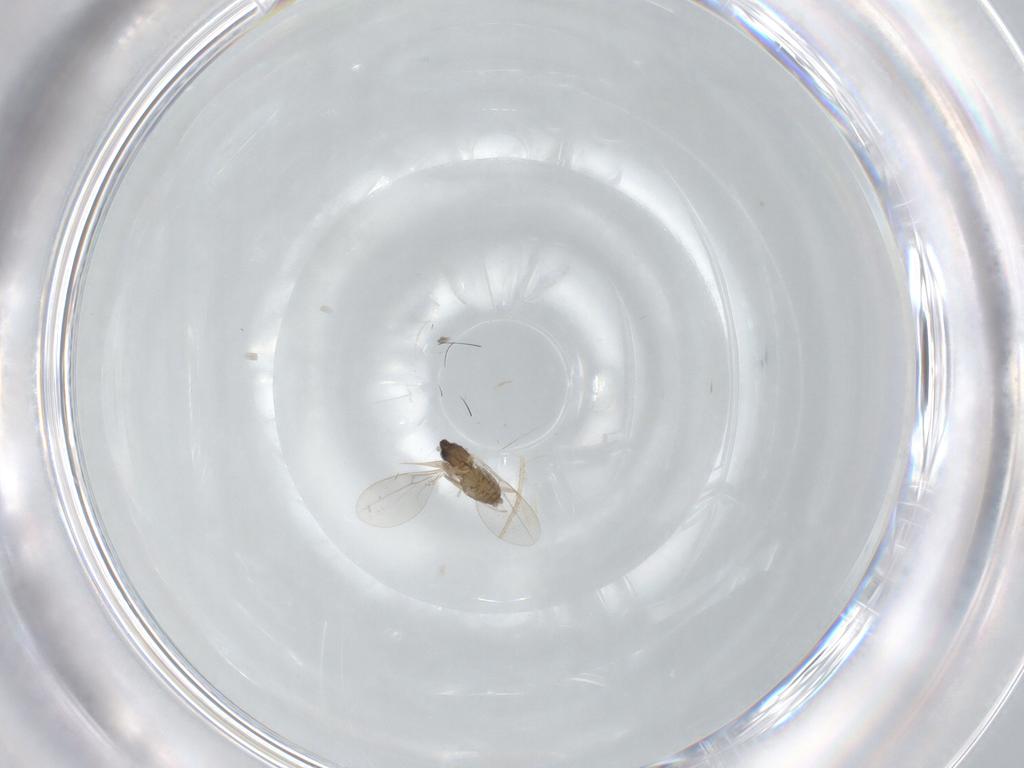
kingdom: Animalia
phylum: Arthropoda
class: Insecta
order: Diptera
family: Cecidomyiidae
